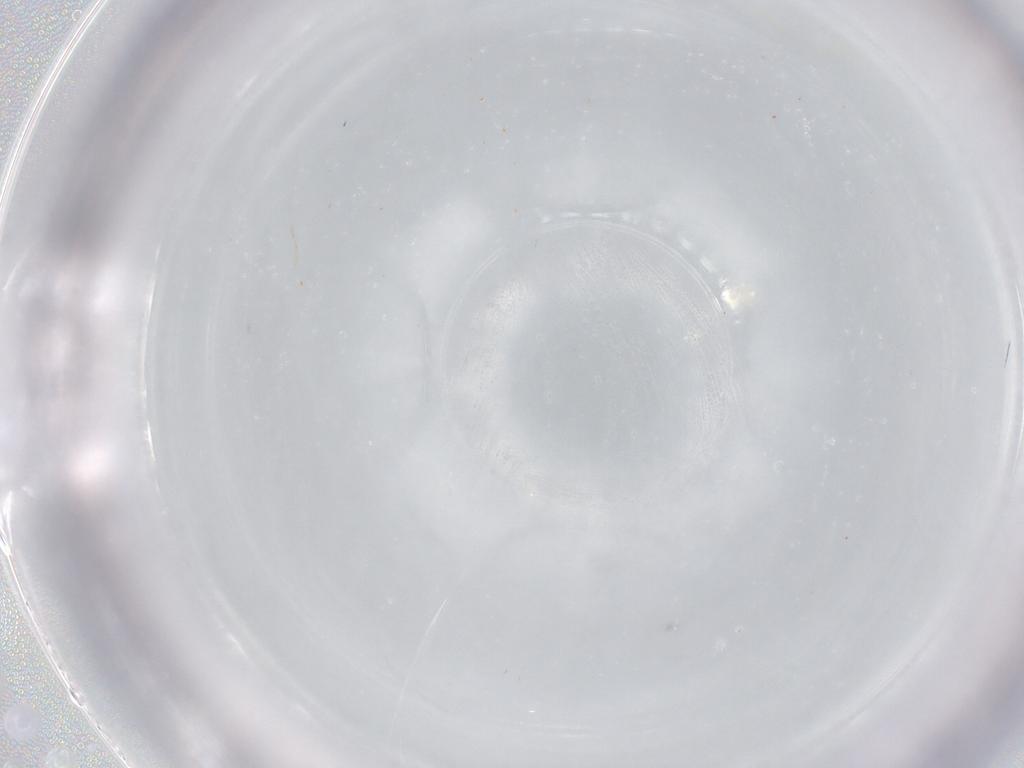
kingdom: Animalia
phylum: Arthropoda
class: Insecta
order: Diptera
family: Cecidomyiidae
